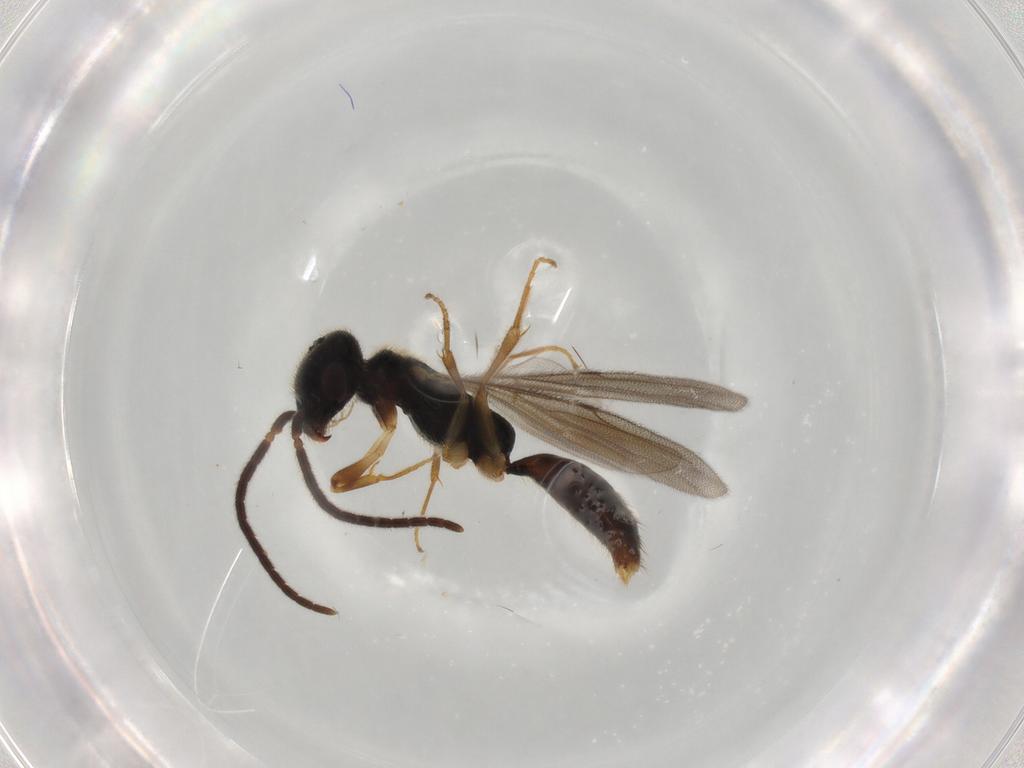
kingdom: Animalia
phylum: Arthropoda
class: Insecta
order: Hymenoptera
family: Bethylidae
